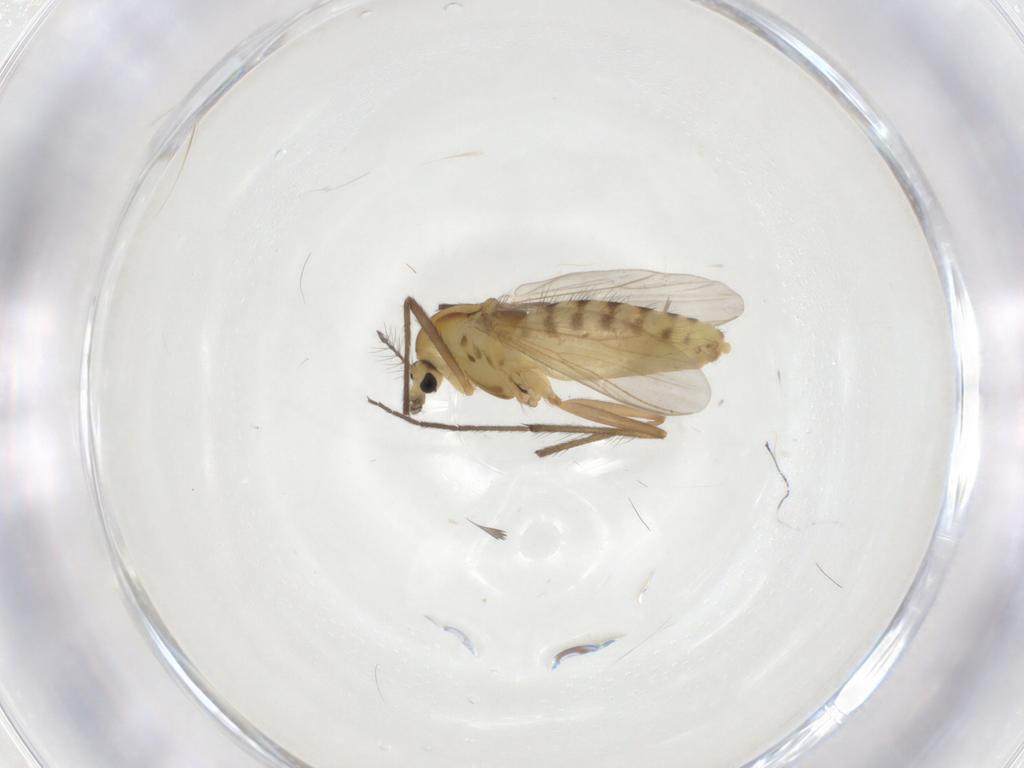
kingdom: Animalia
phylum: Arthropoda
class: Insecta
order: Diptera
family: Chironomidae
